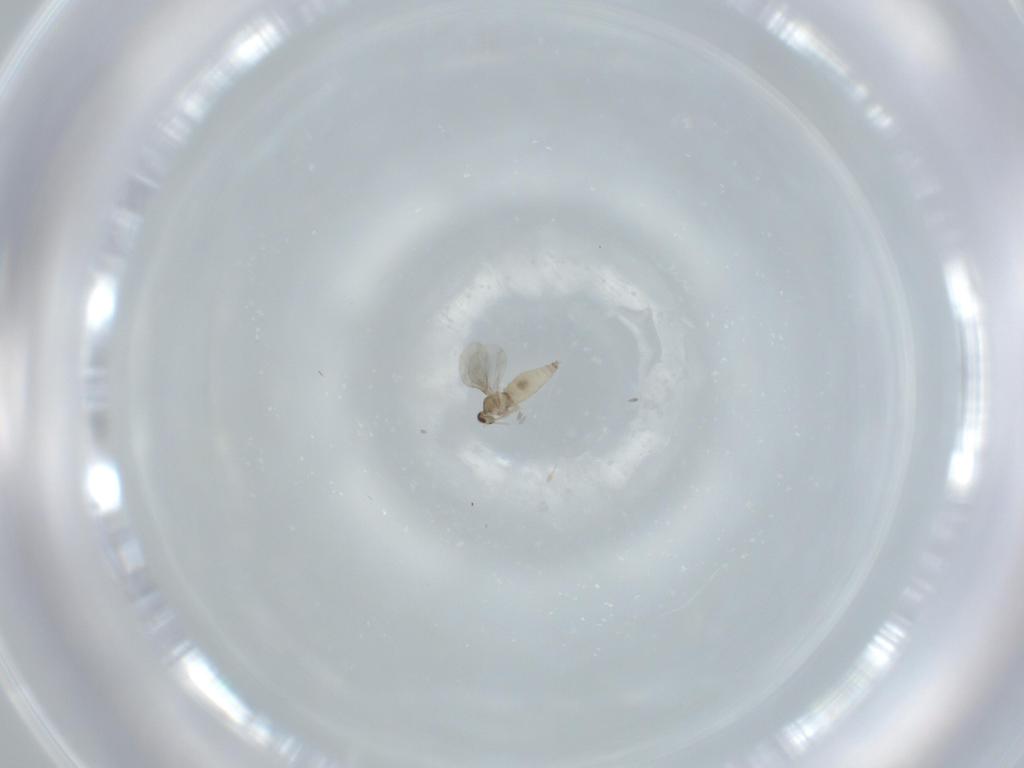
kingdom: Animalia
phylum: Arthropoda
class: Insecta
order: Diptera
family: Cecidomyiidae
